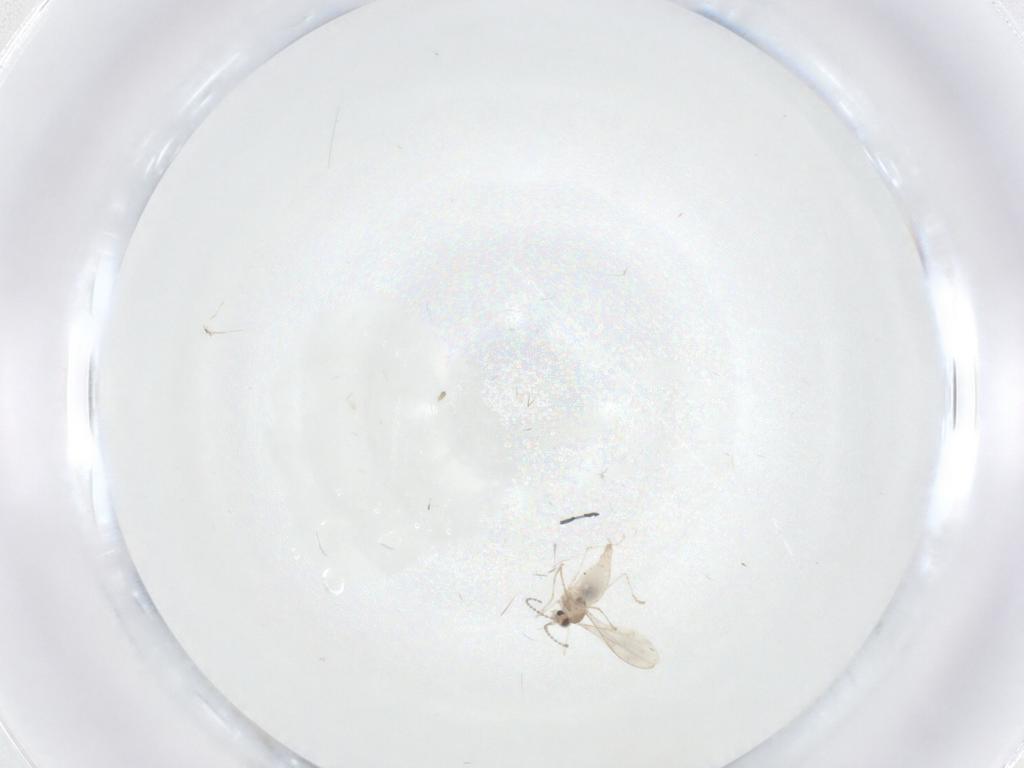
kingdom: Animalia
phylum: Arthropoda
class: Insecta
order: Diptera
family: Cecidomyiidae
